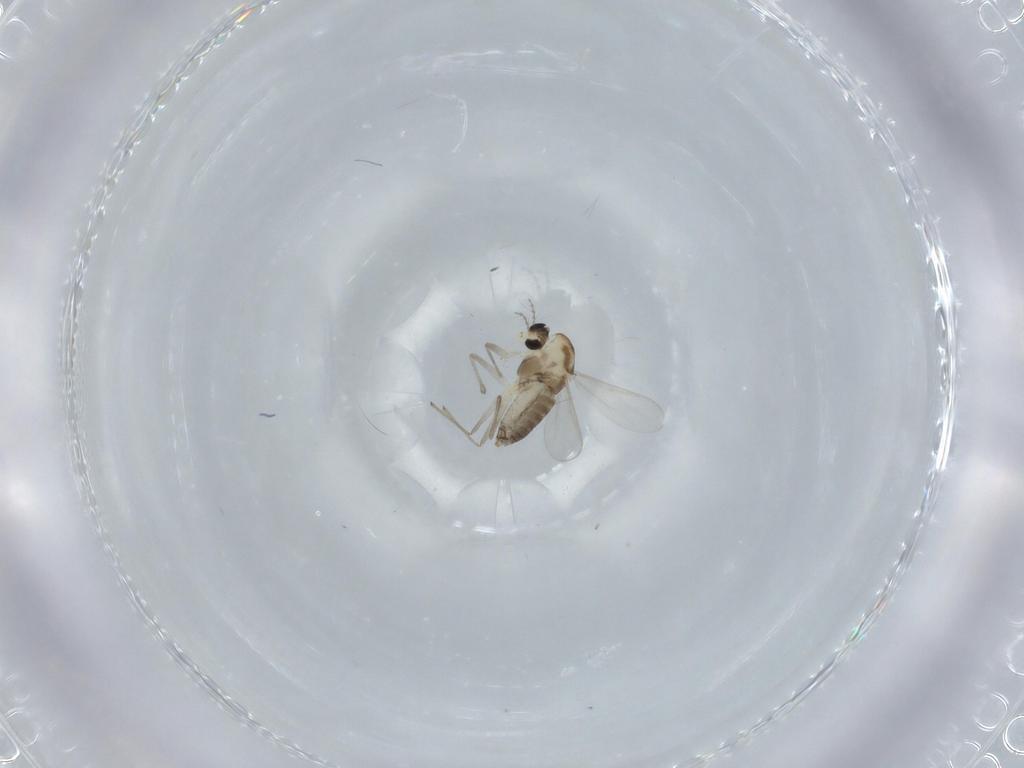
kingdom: Animalia
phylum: Arthropoda
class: Insecta
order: Diptera
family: Chironomidae
